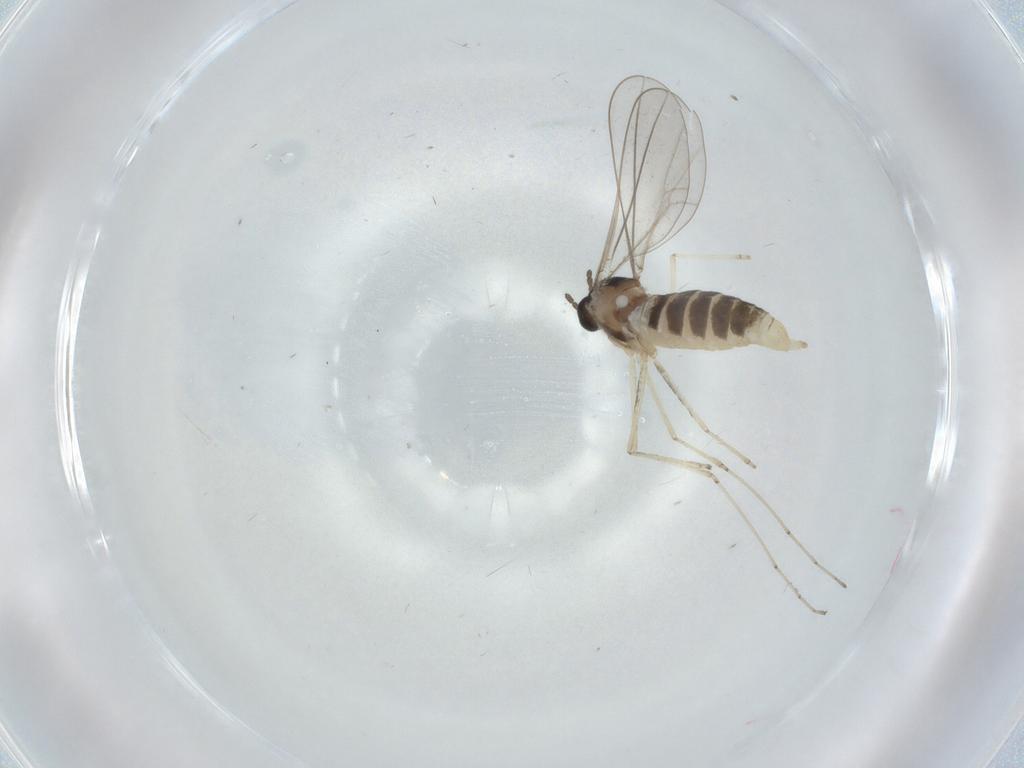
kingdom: Animalia
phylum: Arthropoda
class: Insecta
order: Diptera
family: Cecidomyiidae
